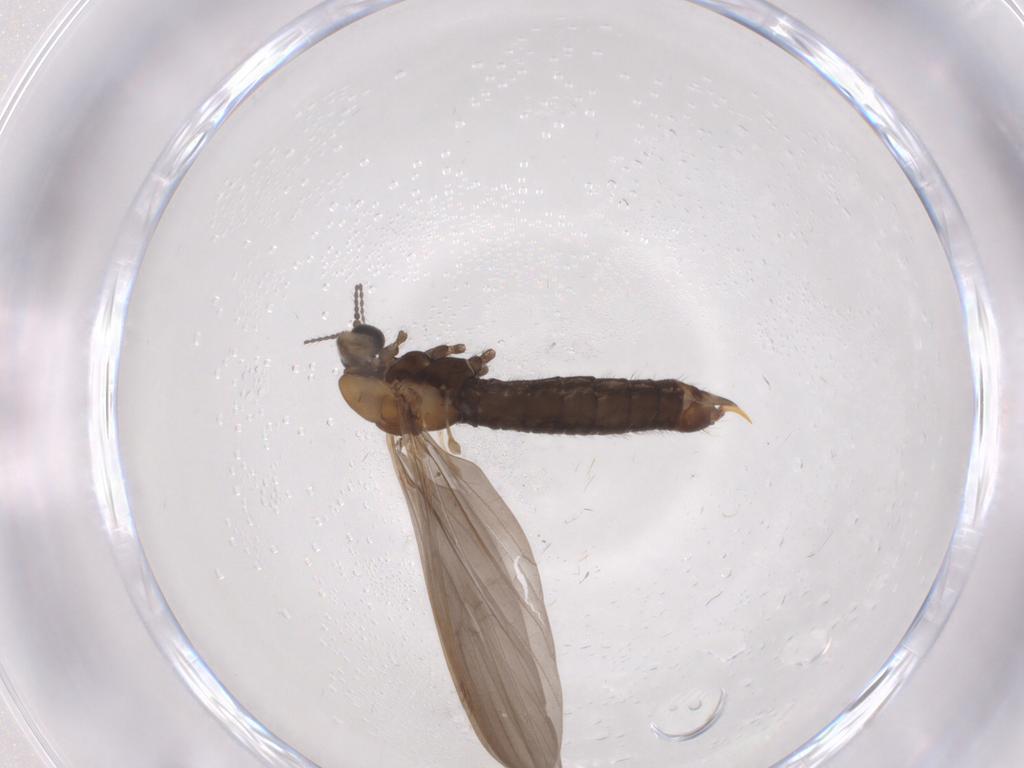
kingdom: Animalia
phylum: Arthropoda
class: Insecta
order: Diptera
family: Limoniidae
